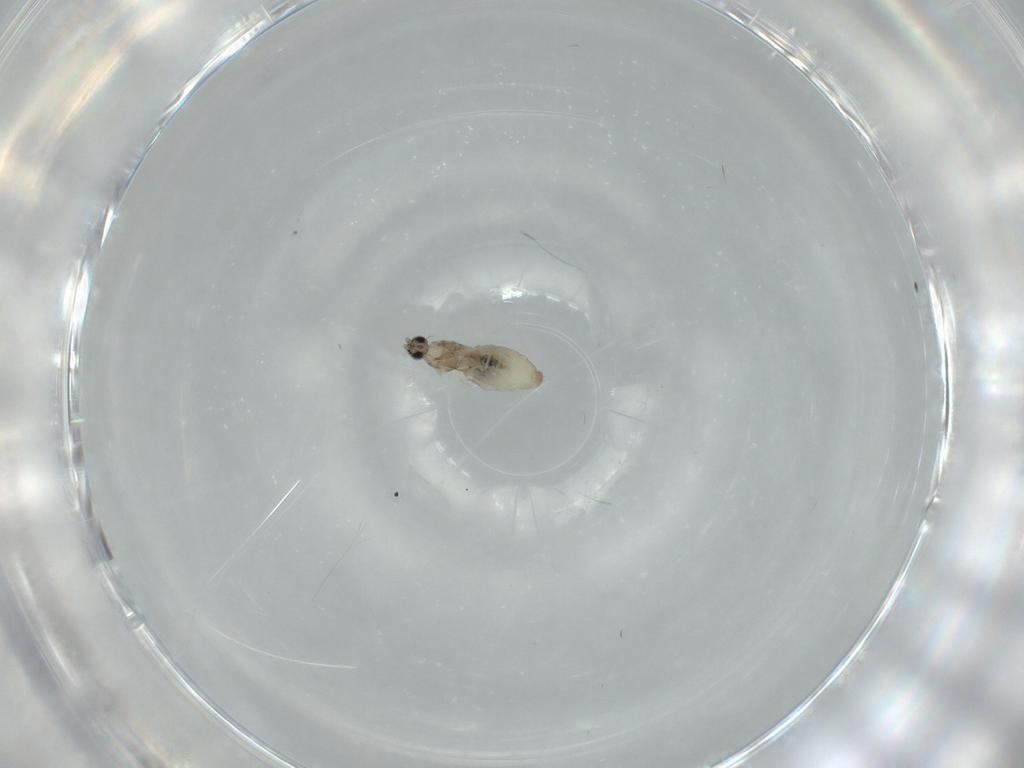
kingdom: Animalia
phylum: Arthropoda
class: Insecta
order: Diptera
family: Cecidomyiidae
